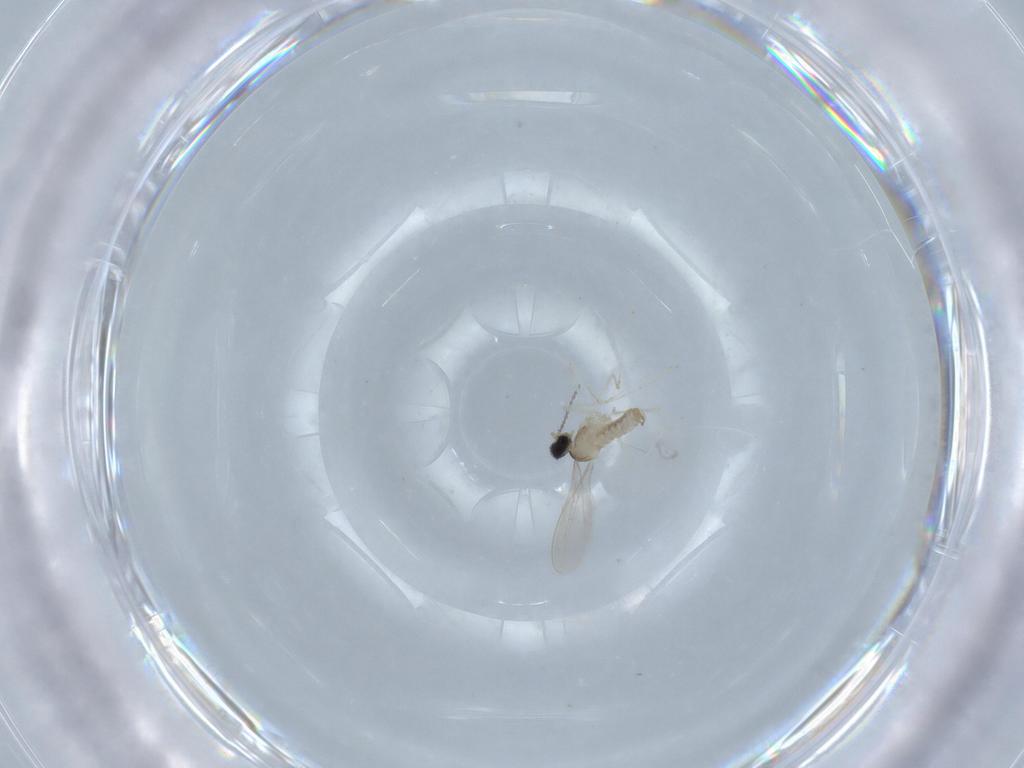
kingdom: Animalia
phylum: Arthropoda
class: Insecta
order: Diptera
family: Cecidomyiidae
